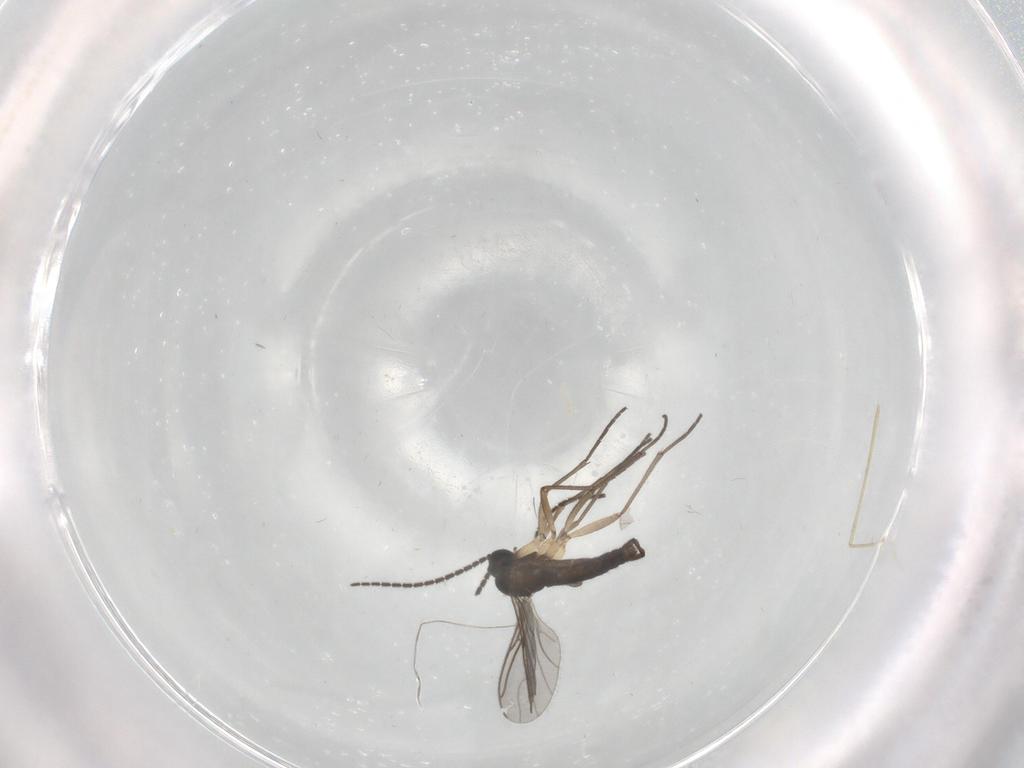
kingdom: Animalia
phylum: Arthropoda
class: Insecta
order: Diptera
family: Sciaridae
